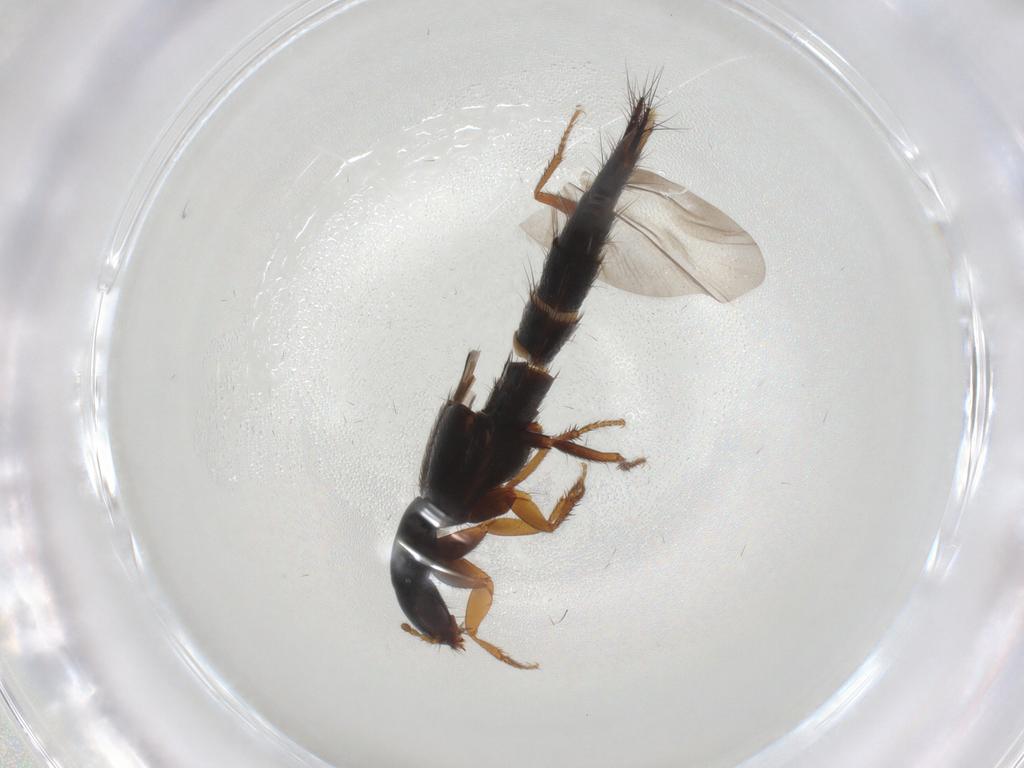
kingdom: Animalia
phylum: Arthropoda
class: Insecta
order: Coleoptera
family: Staphylinidae
